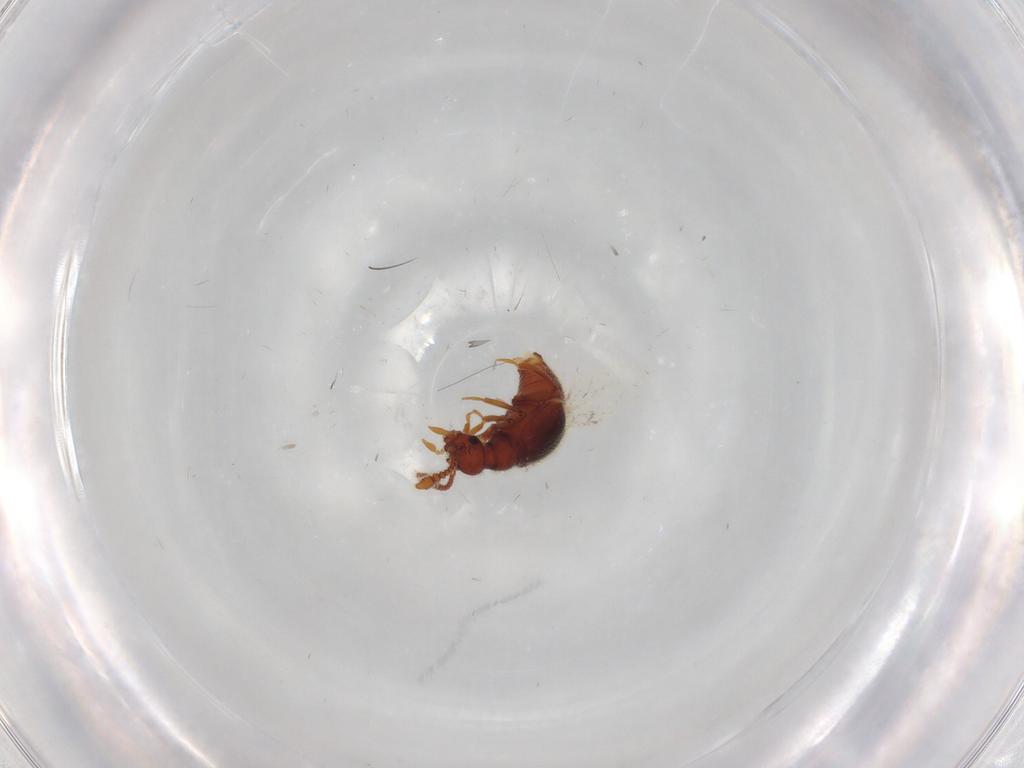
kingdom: Animalia
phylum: Arthropoda
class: Insecta
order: Coleoptera
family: Staphylinidae
